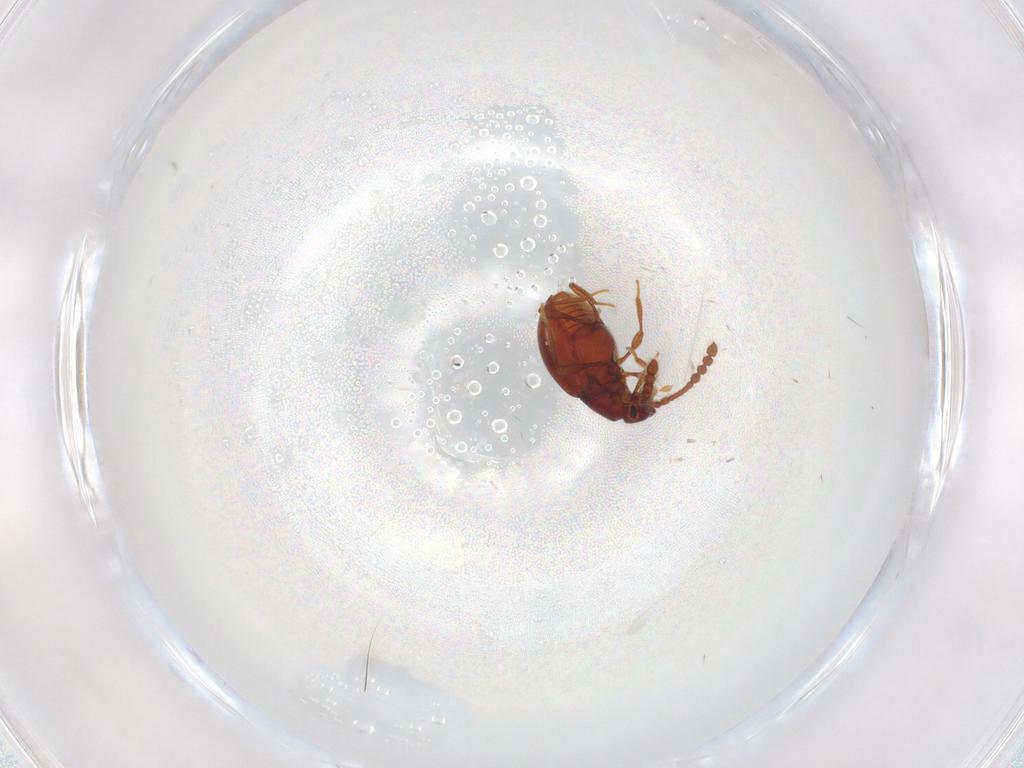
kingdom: Animalia
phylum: Arthropoda
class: Insecta
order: Coleoptera
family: Staphylinidae
